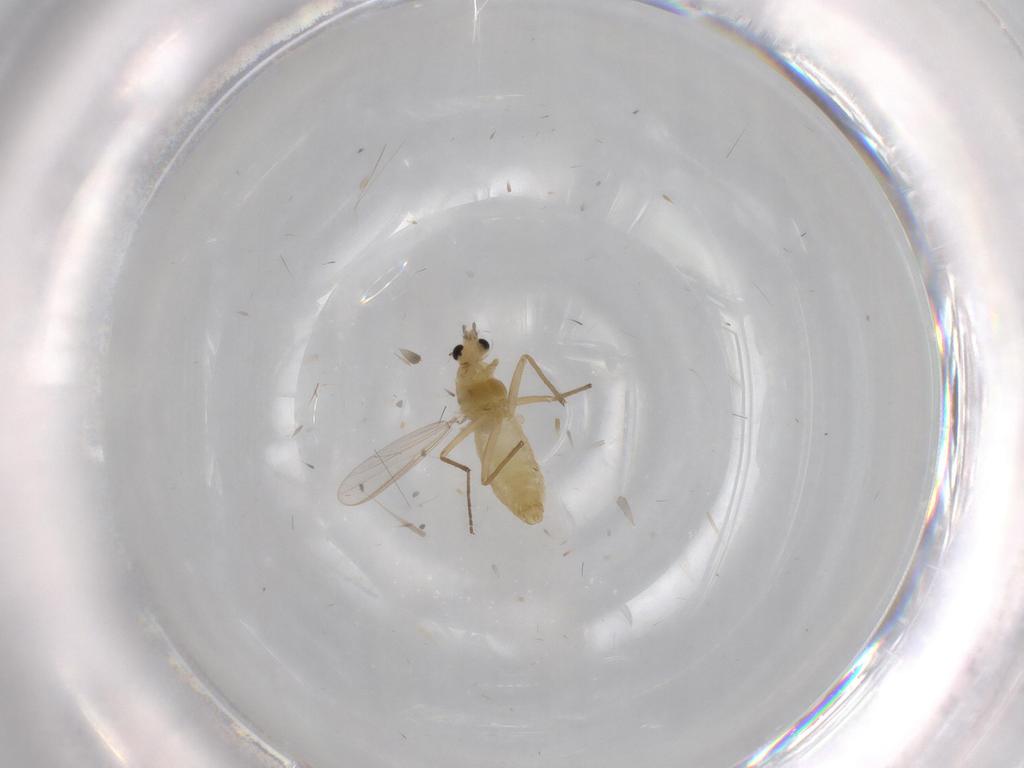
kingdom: Animalia
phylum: Arthropoda
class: Insecta
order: Diptera
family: Chironomidae
